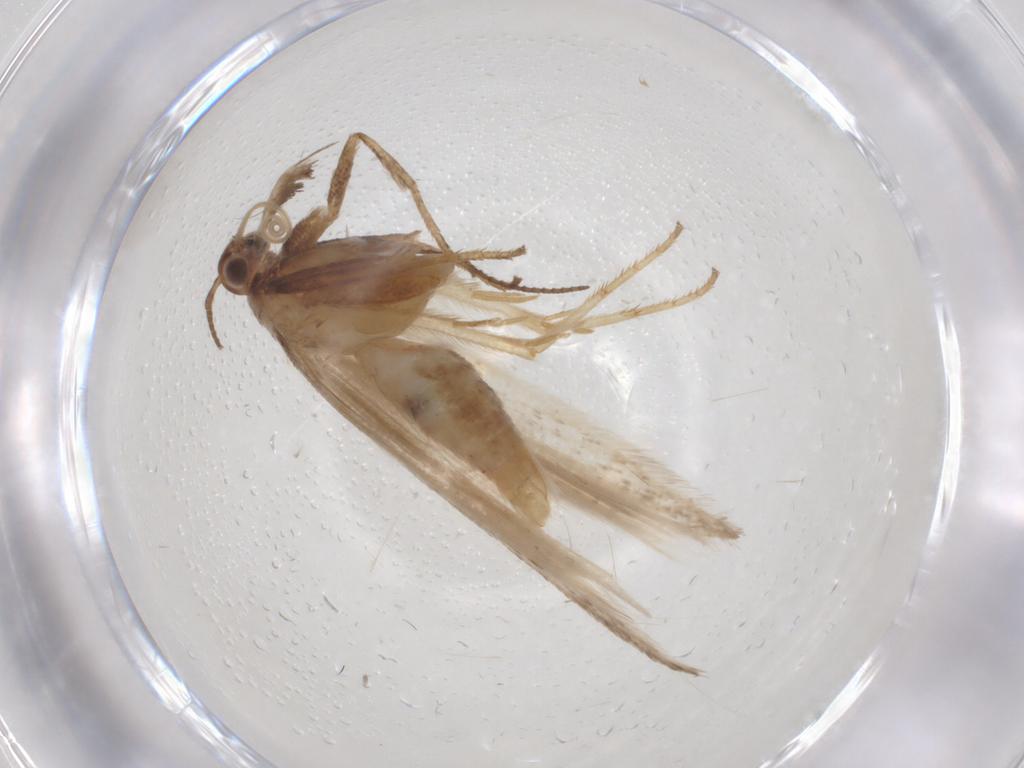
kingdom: Animalia
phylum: Arthropoda
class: Insecta
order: Lepidoptera
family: Gelechiidae
